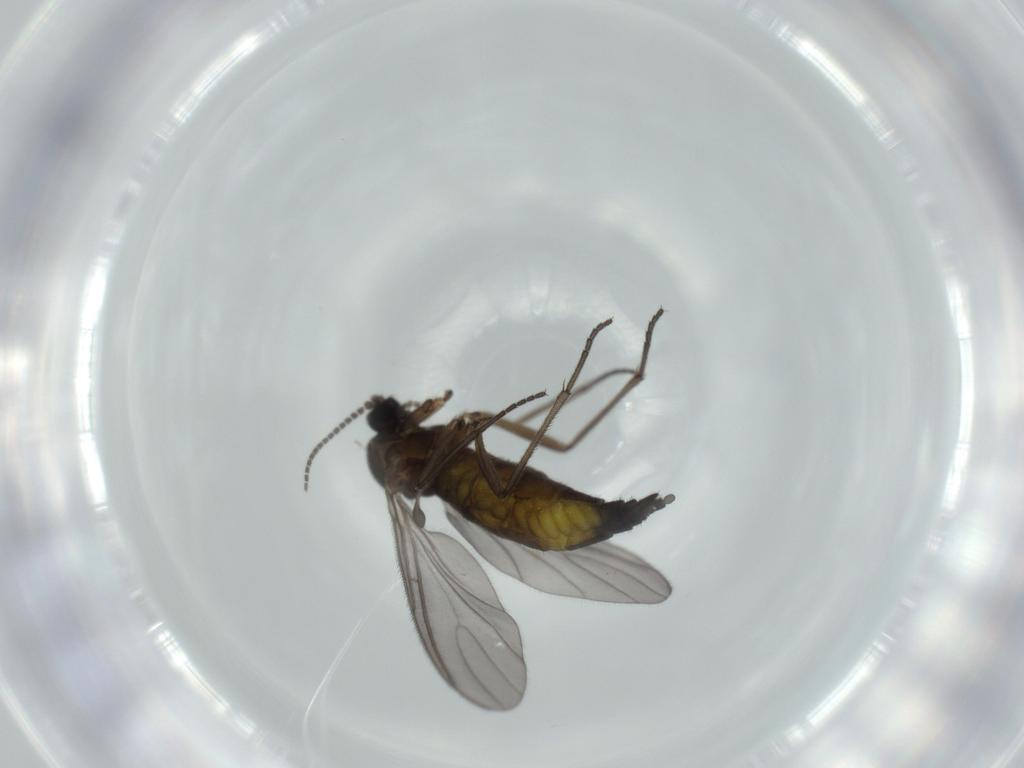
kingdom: Animalia
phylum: Arthropoda
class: Insecta
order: Diptera
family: Sciaridae
